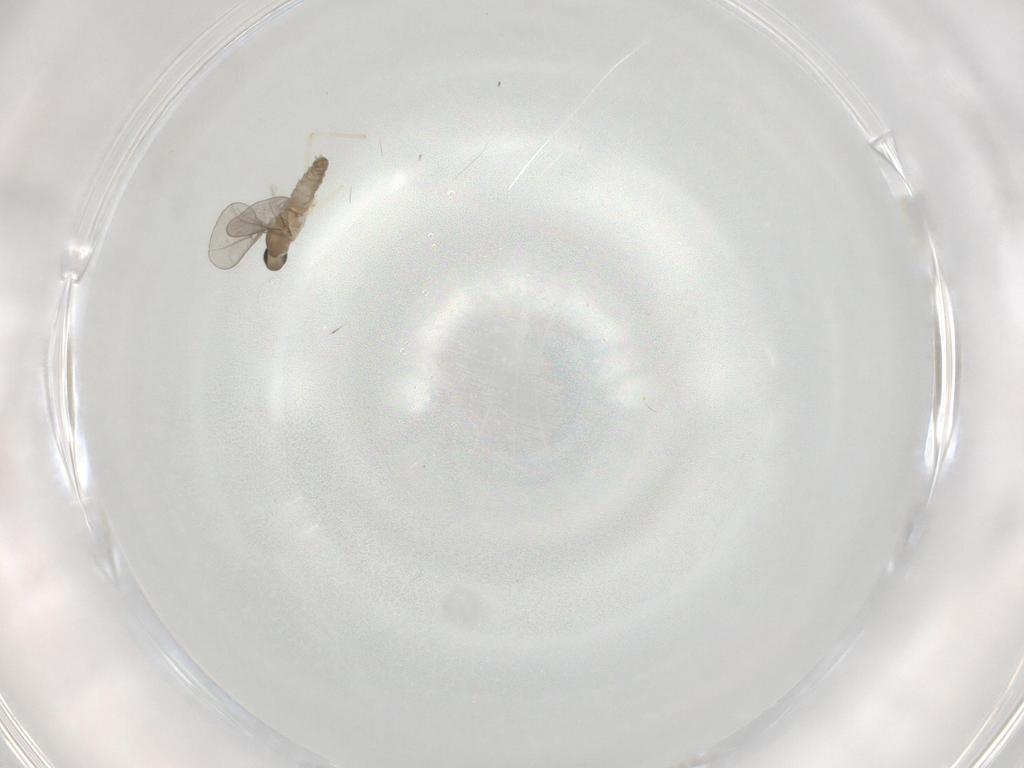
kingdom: Animalia
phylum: Arthropoda
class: Insecta
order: Diptera
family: Cecidomyiidae
